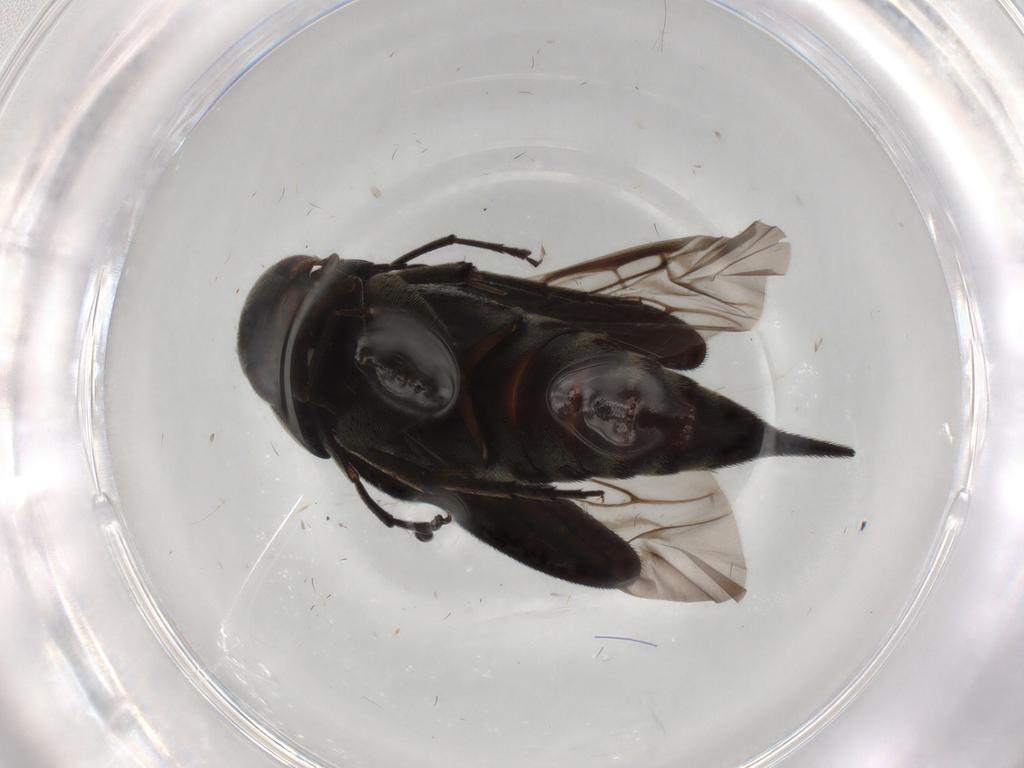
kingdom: Animalia
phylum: Arthropoda
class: Insecta
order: Coleoptera
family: Mordellidae
